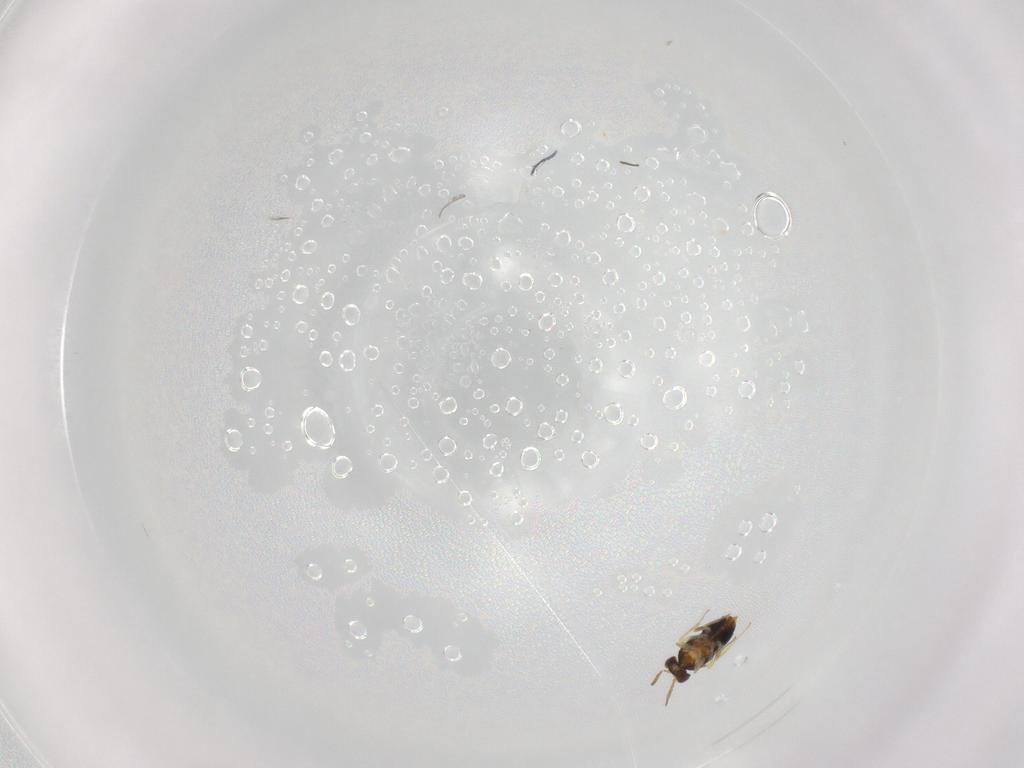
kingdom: Animalia
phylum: Arthropoda
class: Insecta
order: Hymenoptera
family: Aphelinidae
